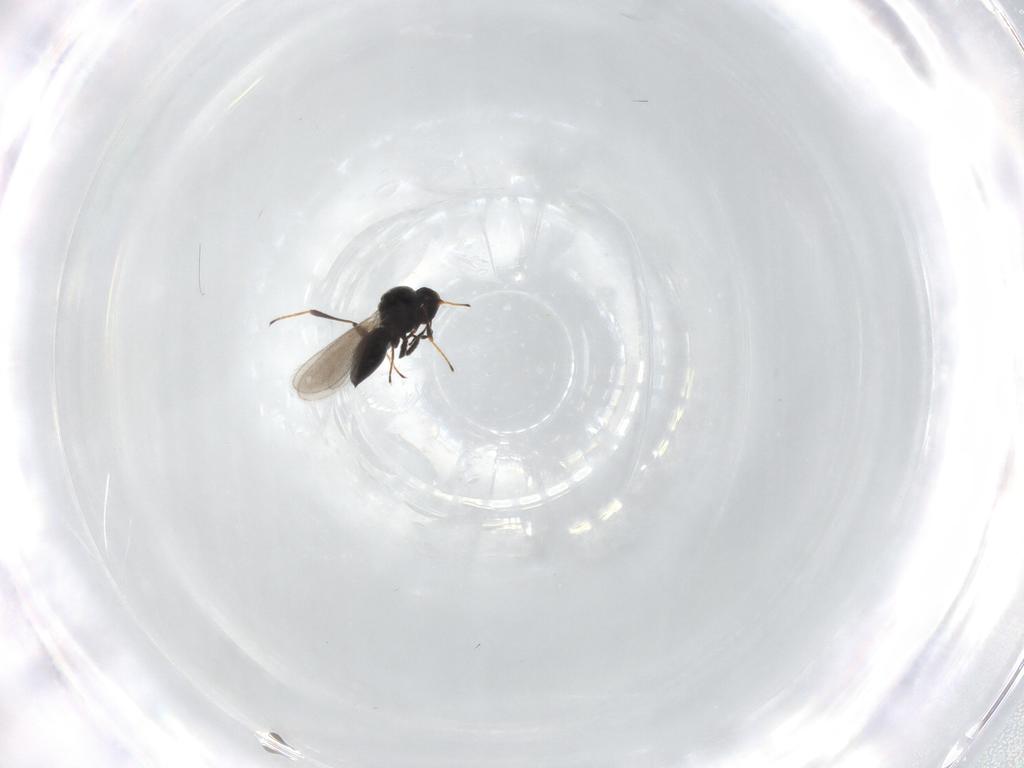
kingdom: Animalia
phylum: Arthropoda
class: Insecta
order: Hymenoptera
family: Platygastridae
